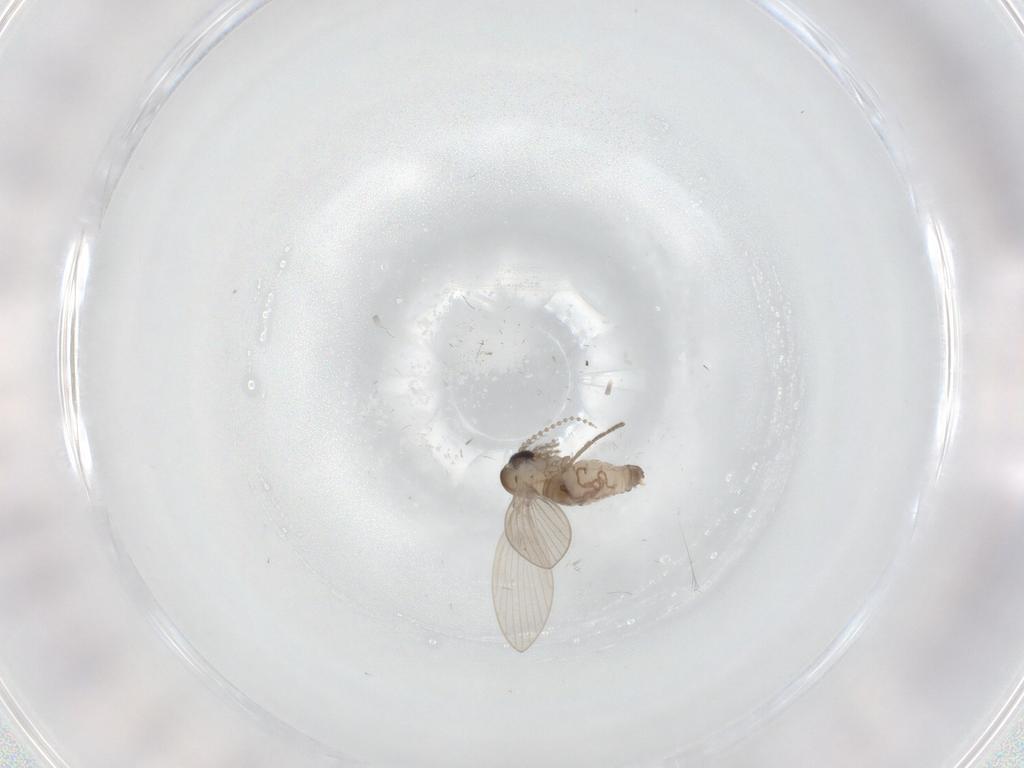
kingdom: Animalia
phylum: Arthropoda
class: Insecta
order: Diptera
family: Psychodidae
